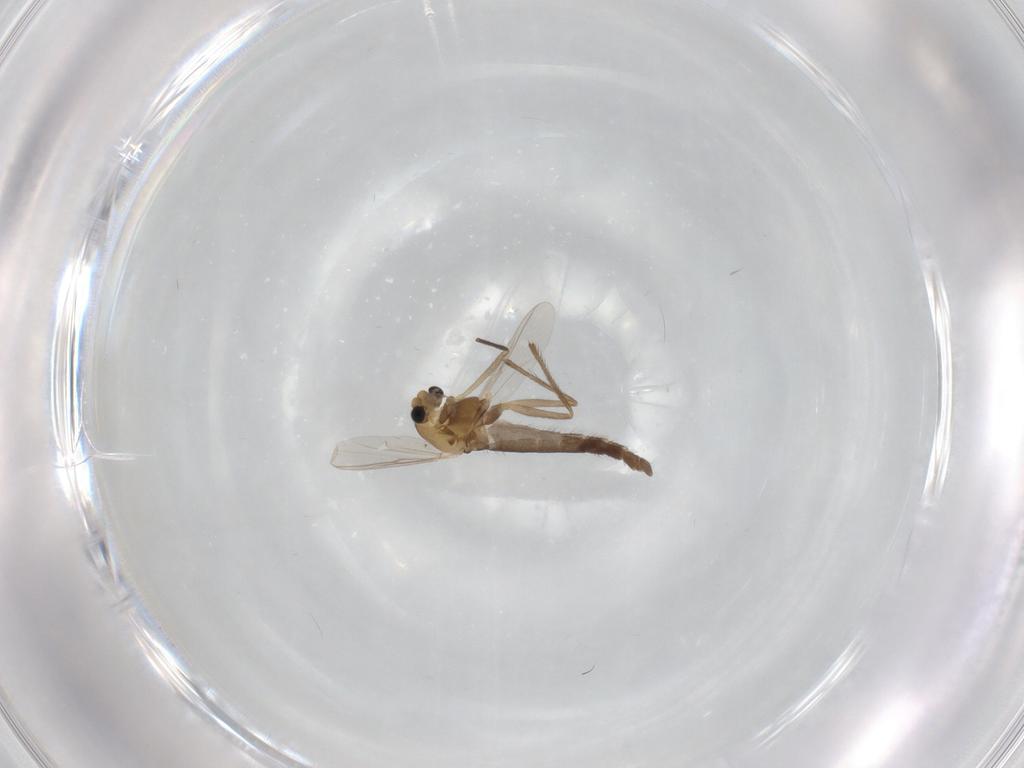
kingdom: Animalia
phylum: Arthropoda
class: Insecta
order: Diptera
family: Chironomidae
